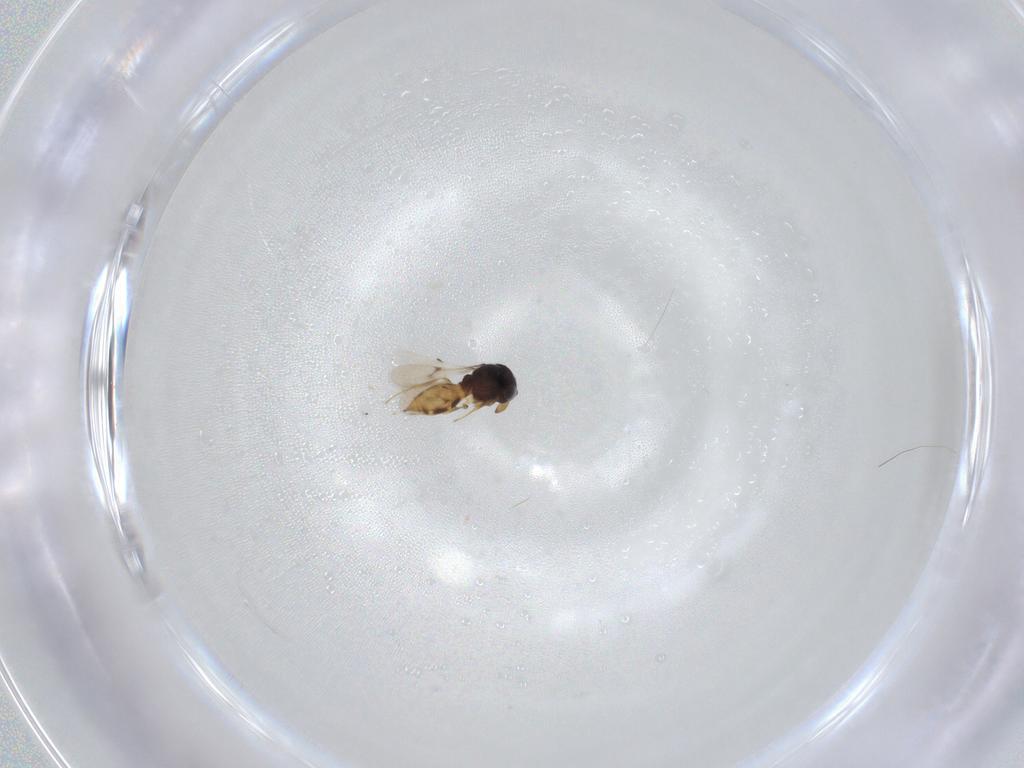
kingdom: Animalia
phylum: Arthropoda
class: Insecta
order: Hymenoptera
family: Scelionidae
